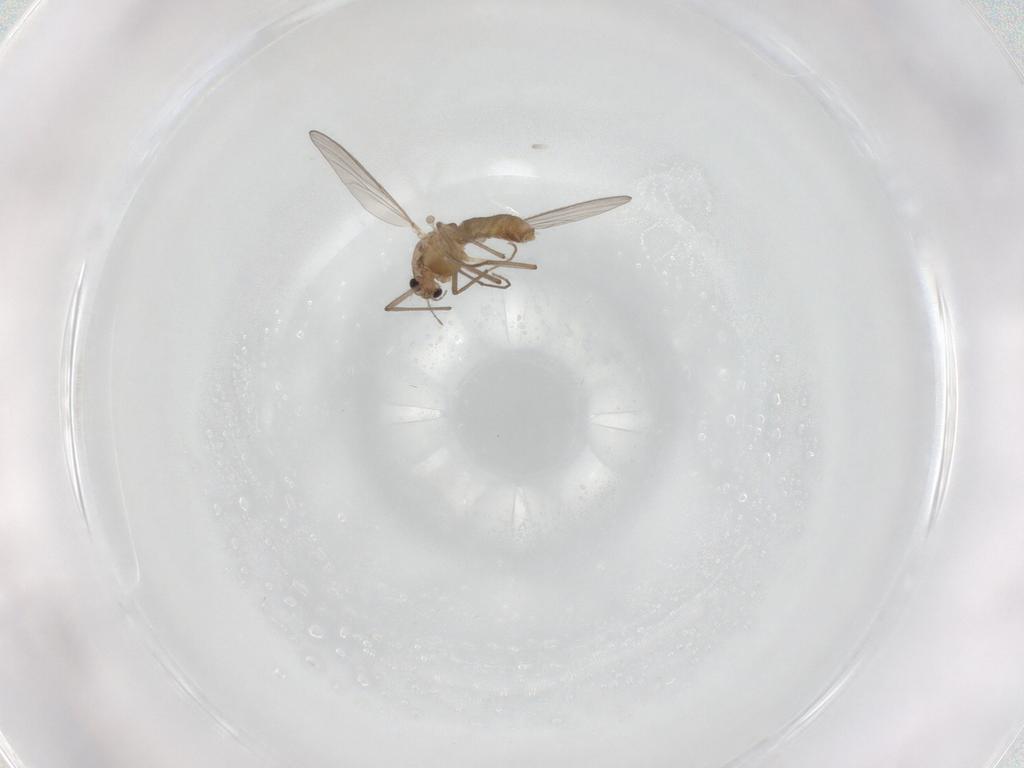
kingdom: Animalia
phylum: Arthropoda
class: Insecta
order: Diptera
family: Chironomidae
